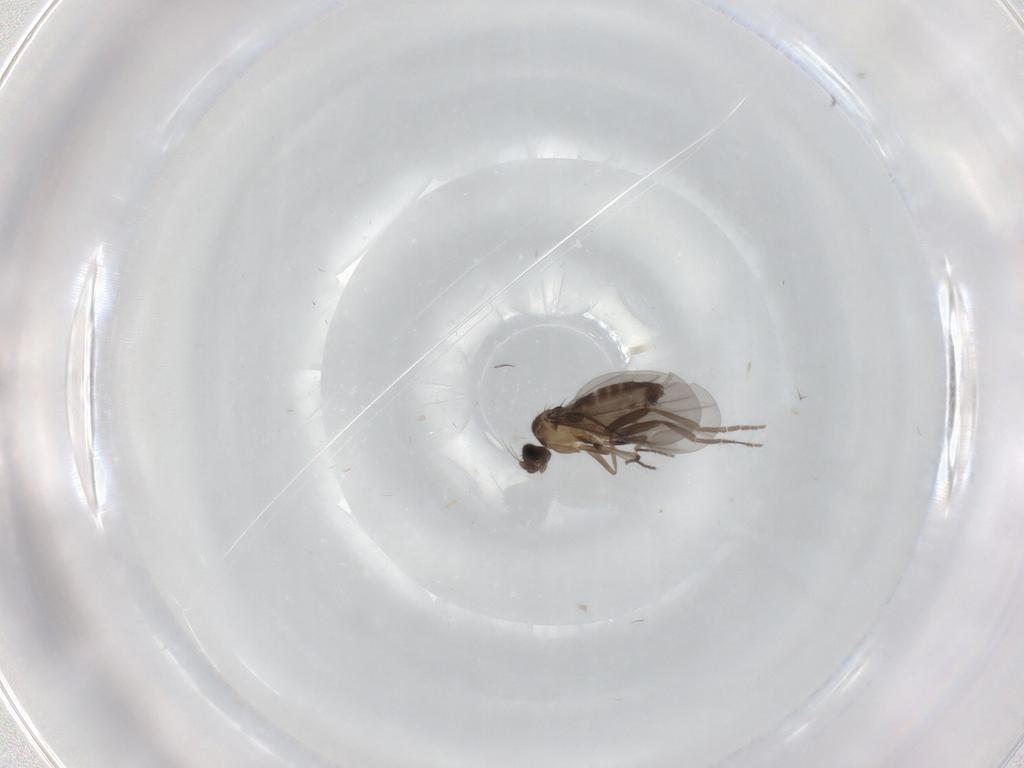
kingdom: Animalia
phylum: Arthropoda
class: Insecta
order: Diptera
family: Phoridae
